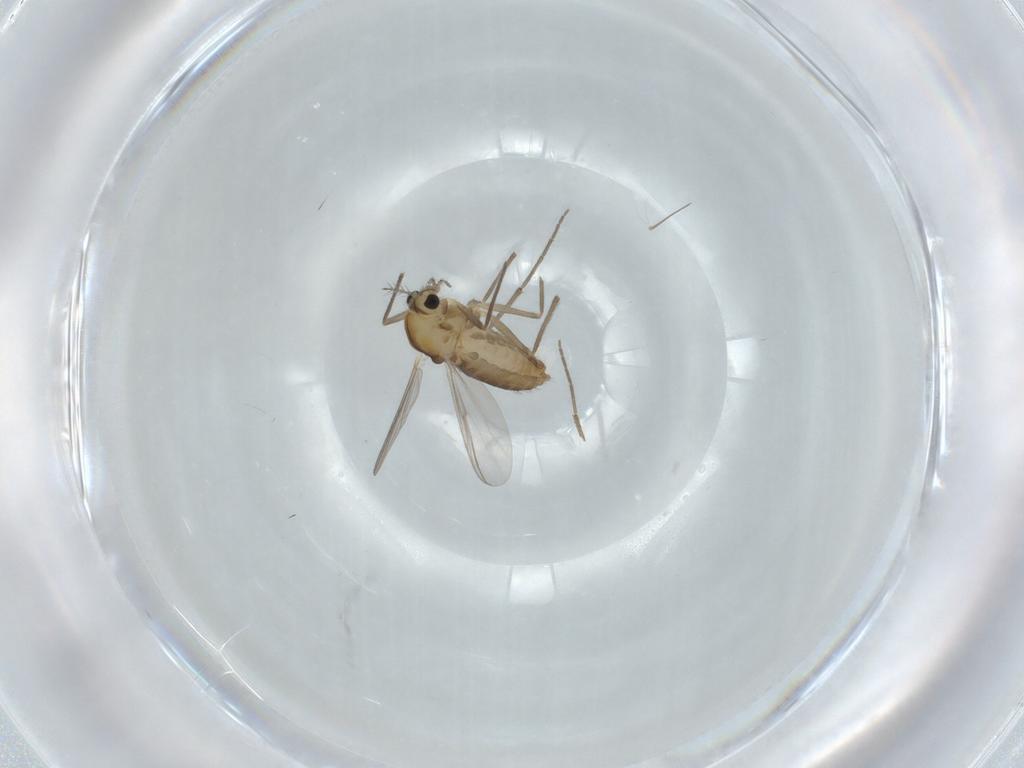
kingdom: Animalia
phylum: Arthropoda
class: Insecta
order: Diptera
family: Chironomidae
